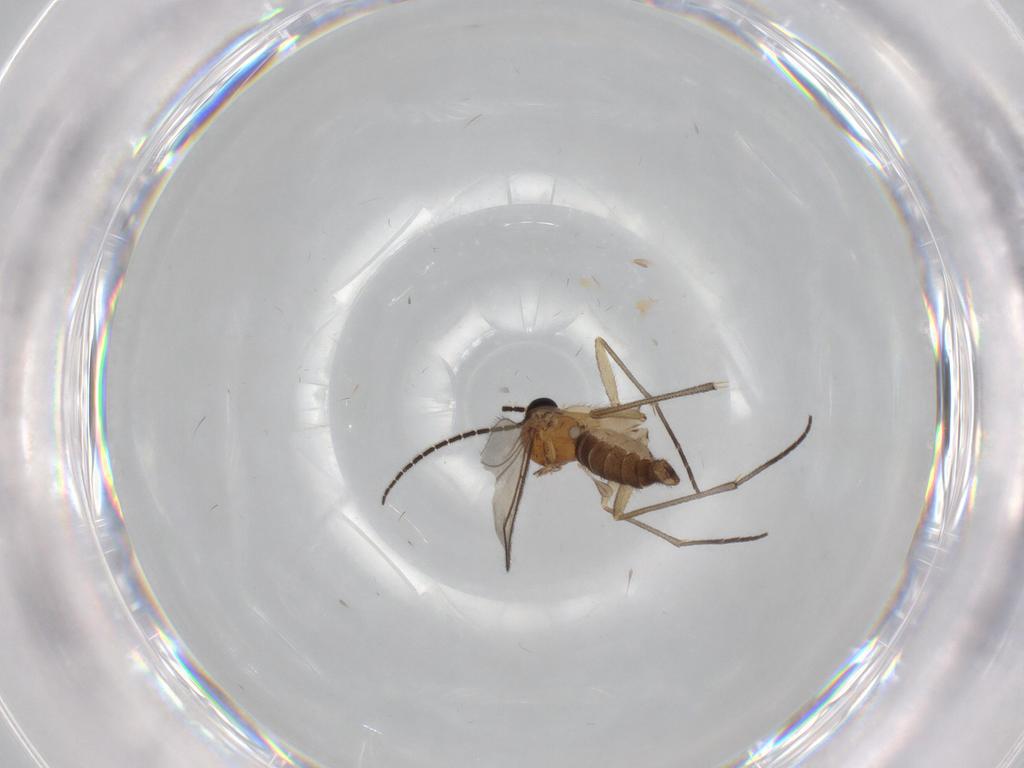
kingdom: Animalia
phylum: Arthropoda
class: Insecta
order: Diptera
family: Sciaridae
